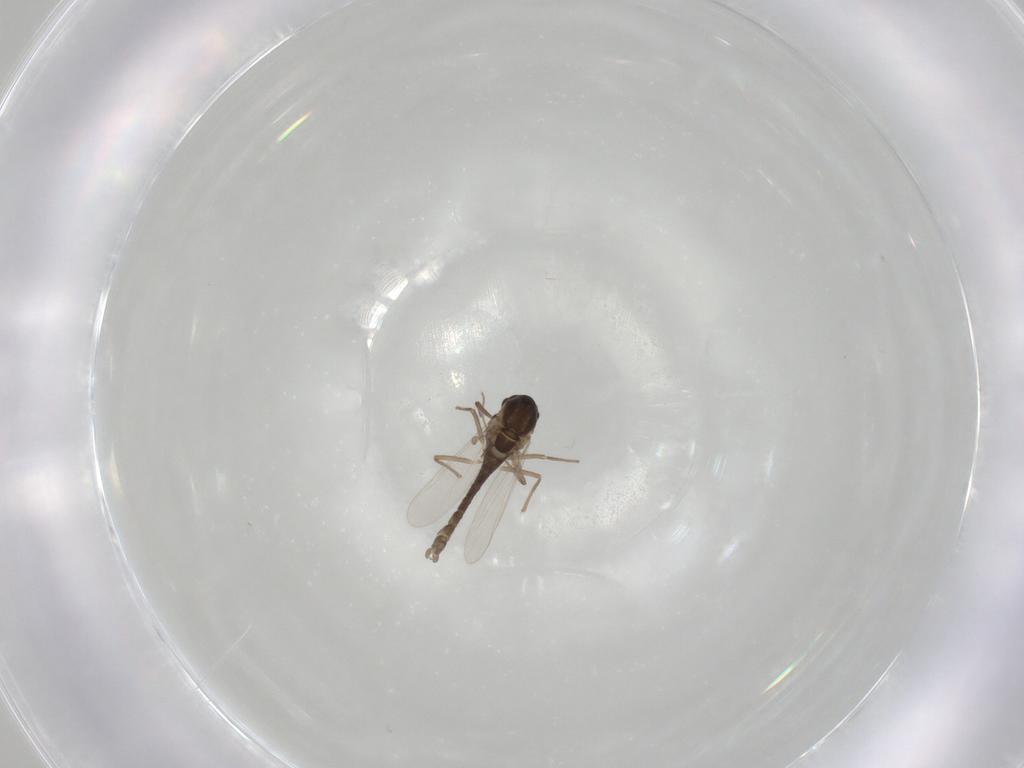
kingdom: Animalia
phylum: Arthropoda
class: Insecta
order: Diptera
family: Chironomidae
